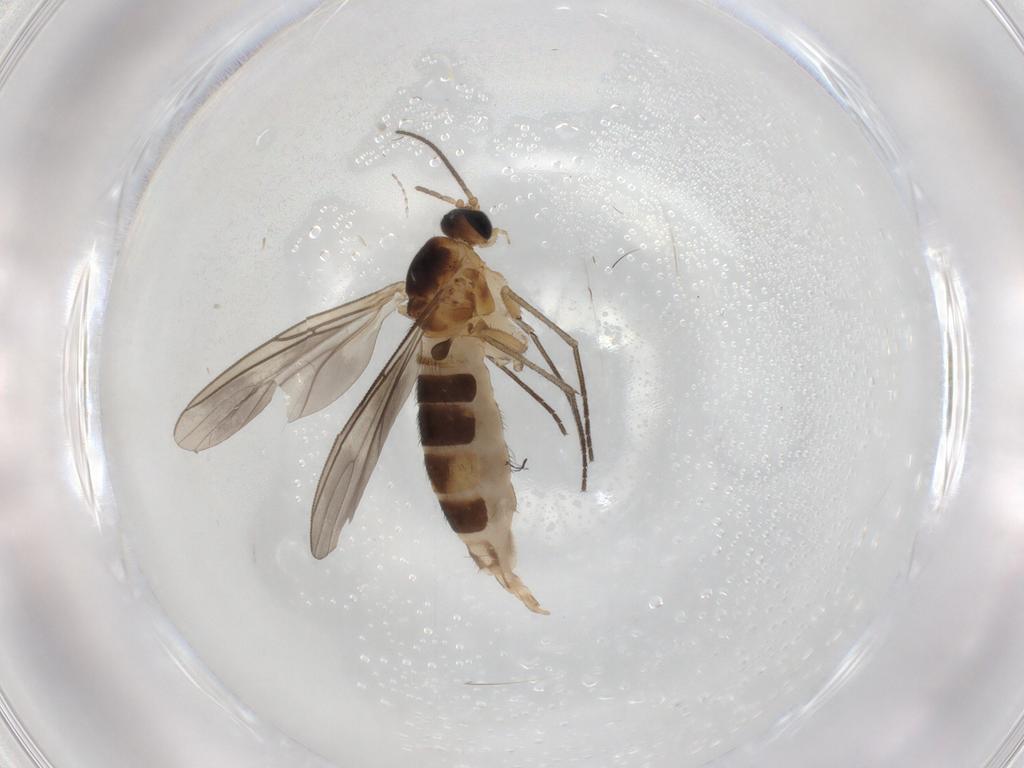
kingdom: Animalia
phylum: Arthropoda
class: Insecta
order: Diptera
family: Sciaridae
